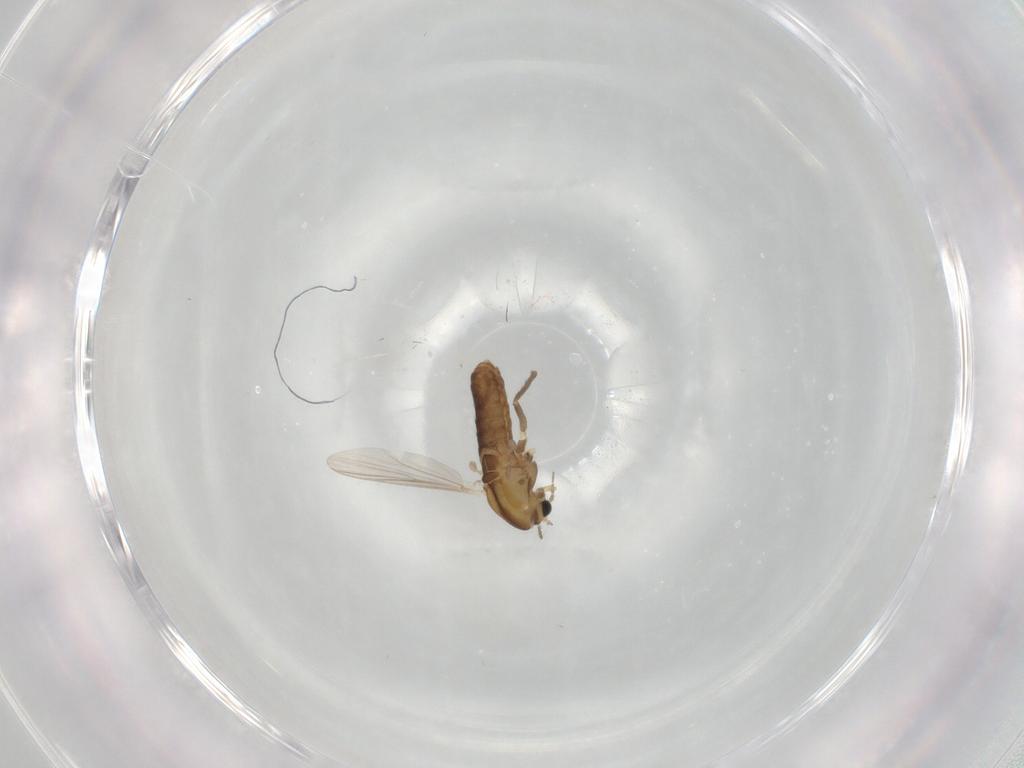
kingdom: Animalia
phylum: Arthropoda
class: Insecta
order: Diptera
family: Chironomidae
